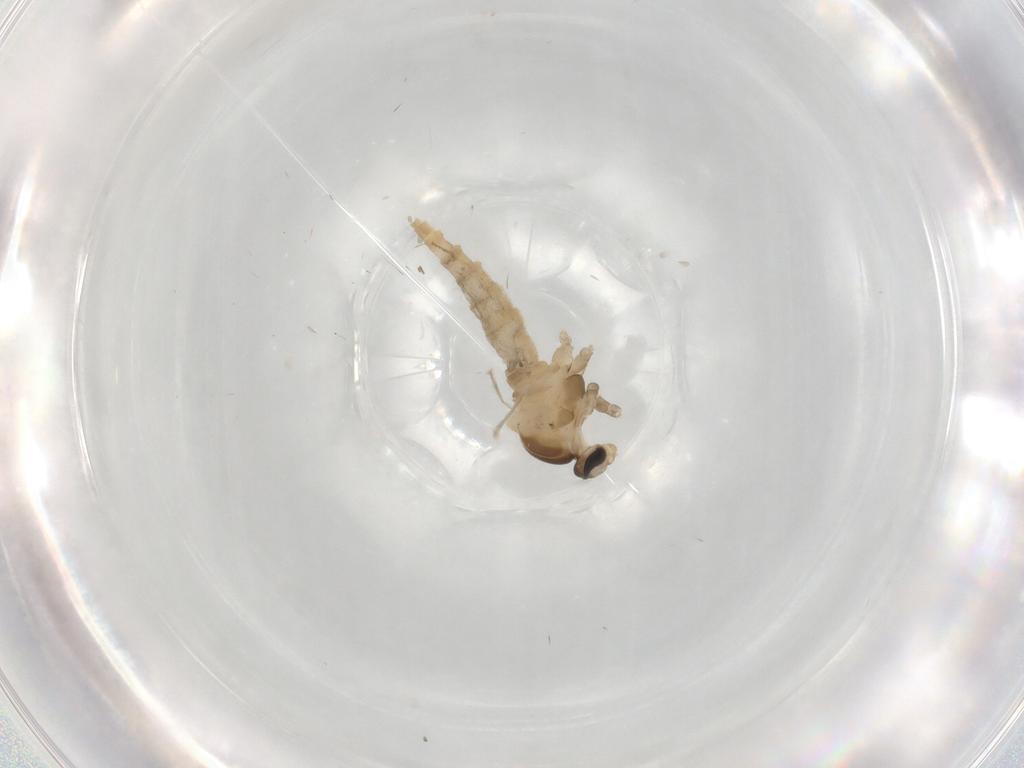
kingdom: Animalia
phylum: Arthropoda
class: Insecta
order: Diptera
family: Cecidomyiidae
